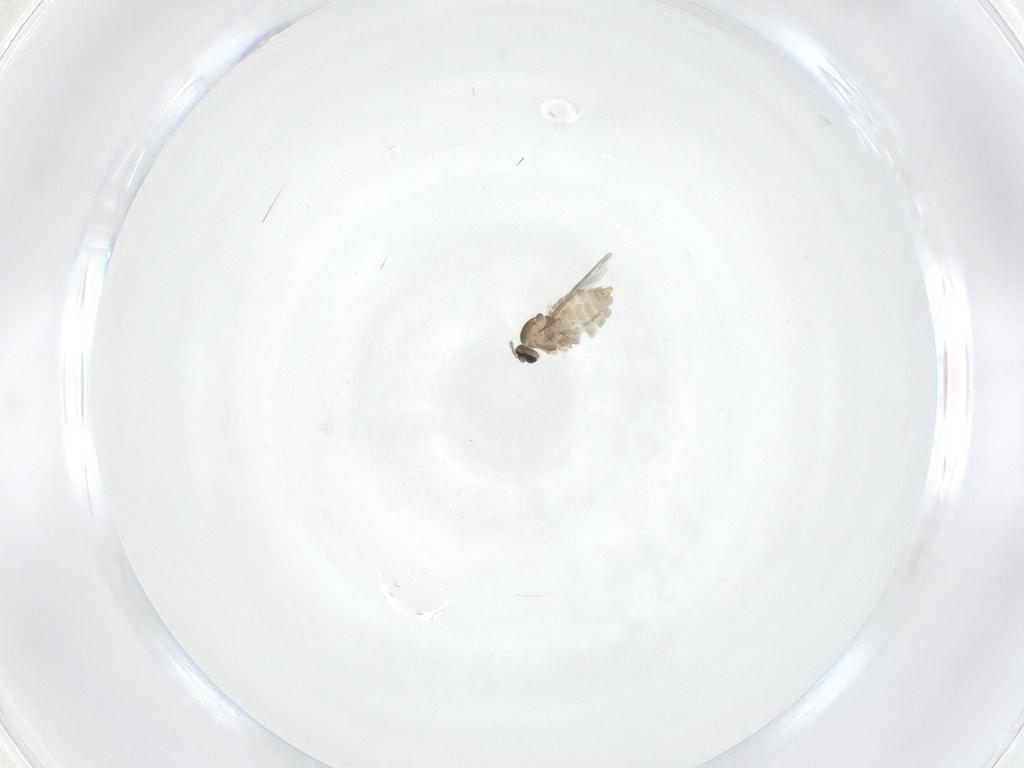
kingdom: Animalia
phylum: Arthropoda
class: Insecta
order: Diptera
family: Cecidomyiidae
